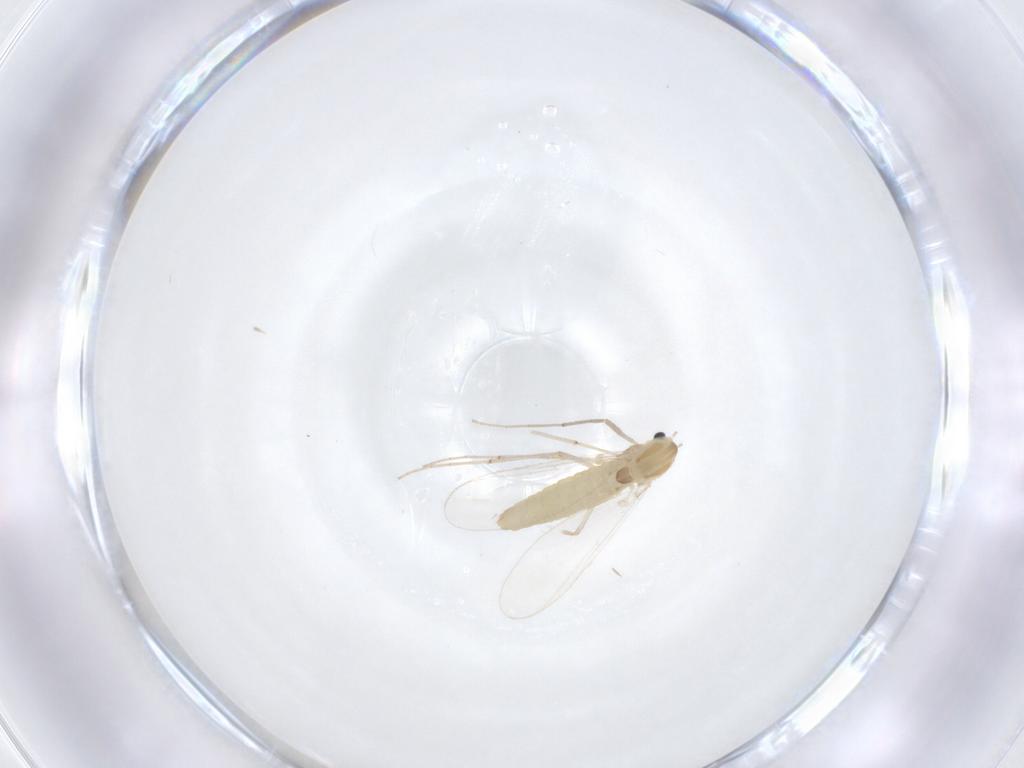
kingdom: Animalia
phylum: Arthropoda
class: Insecta
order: Diptera
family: Chironomidae
